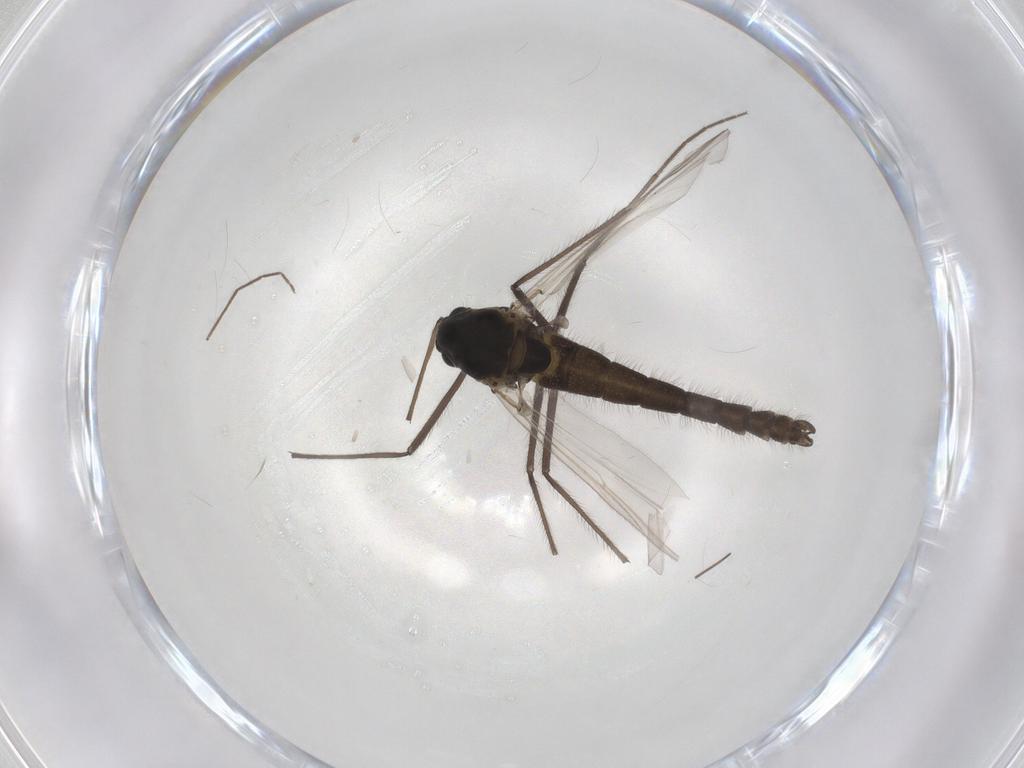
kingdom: Animalia
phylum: Arthropoda
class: Insecta
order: Diptera
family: Chironomidae
